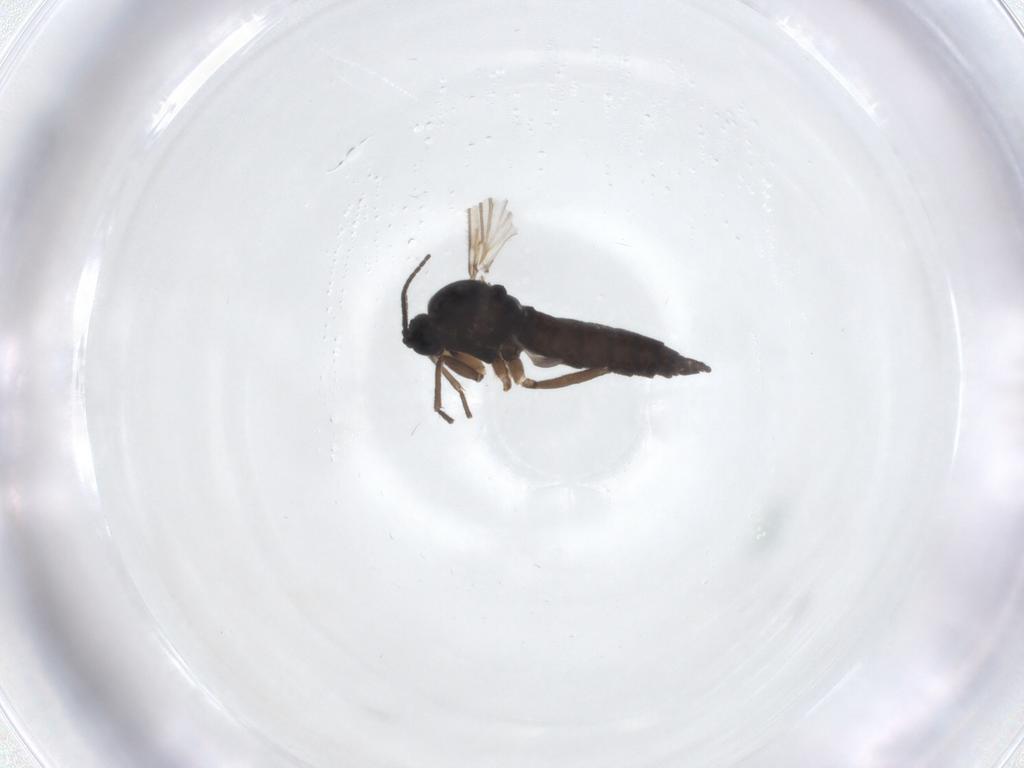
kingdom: Animalia
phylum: Arthropoda
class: Insecta
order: Diptera
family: Sciaridae
